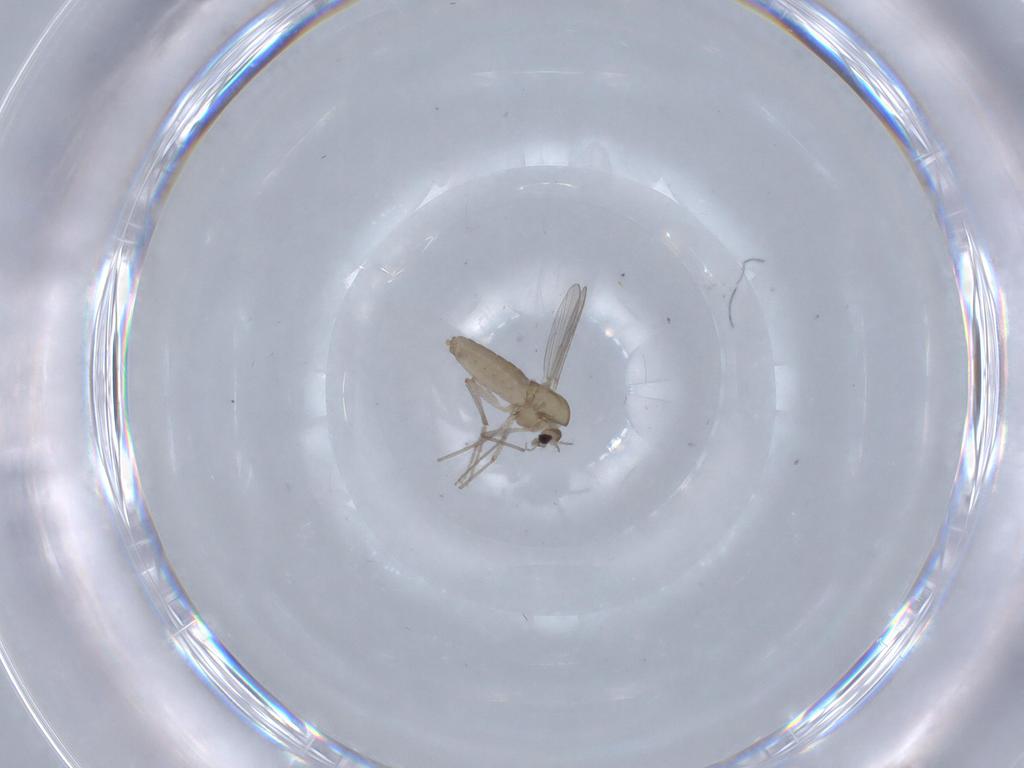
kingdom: Animalia
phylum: Arthropoda
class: Insecta
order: Diptera
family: Chironomidae
